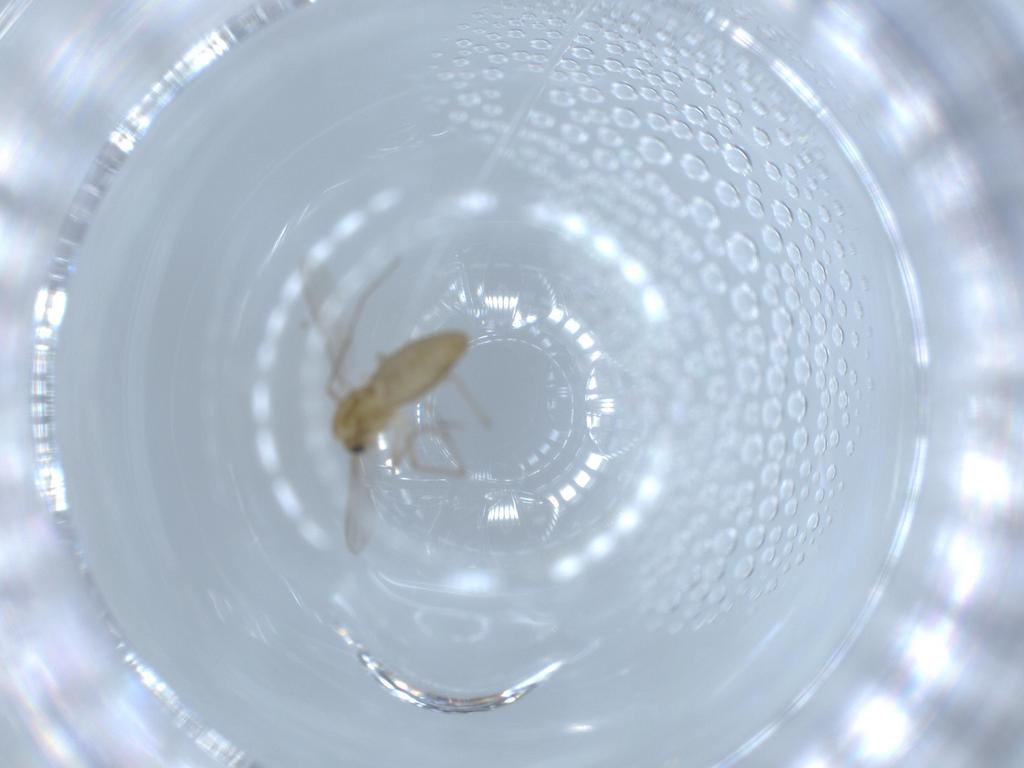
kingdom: Animalia
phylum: Arthropoda
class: Insecta
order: Diptera
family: Chironomidae
